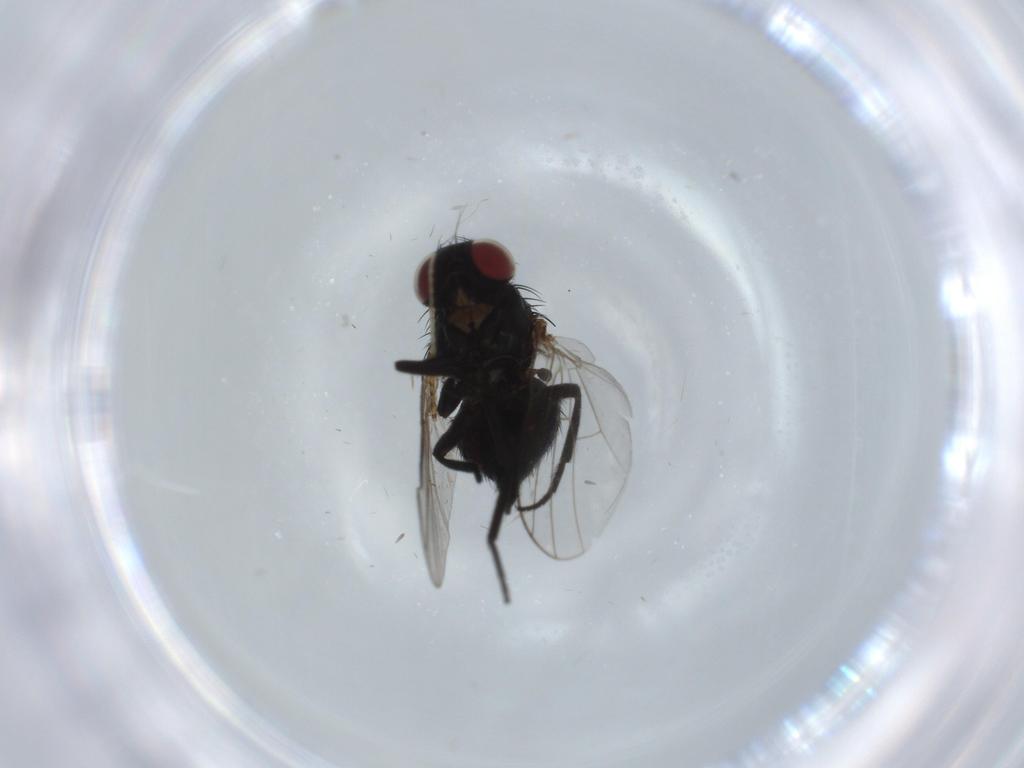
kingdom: Animalia
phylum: Arthropoda
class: Insecta
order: Diptera
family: Agromyzidae
